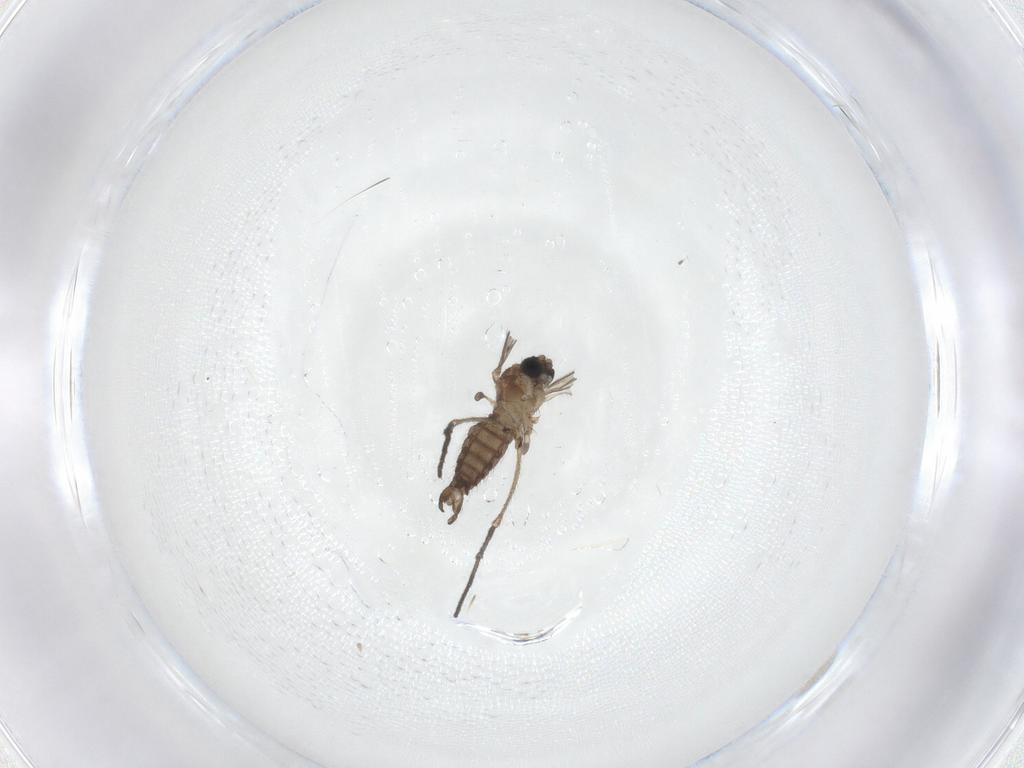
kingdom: Animalia
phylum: Arthropoda
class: Insecta
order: Diptera
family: Sciaridae
